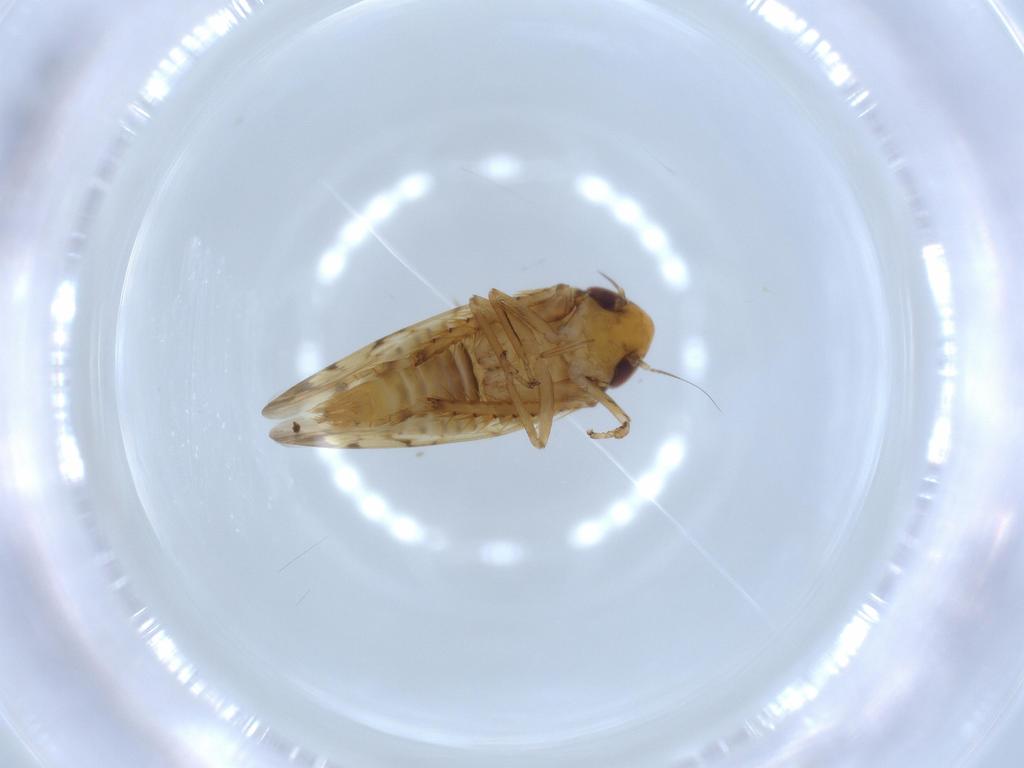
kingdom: Animalia
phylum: Arthropoda
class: Insecta
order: Hemiptera
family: Cicadellidae
